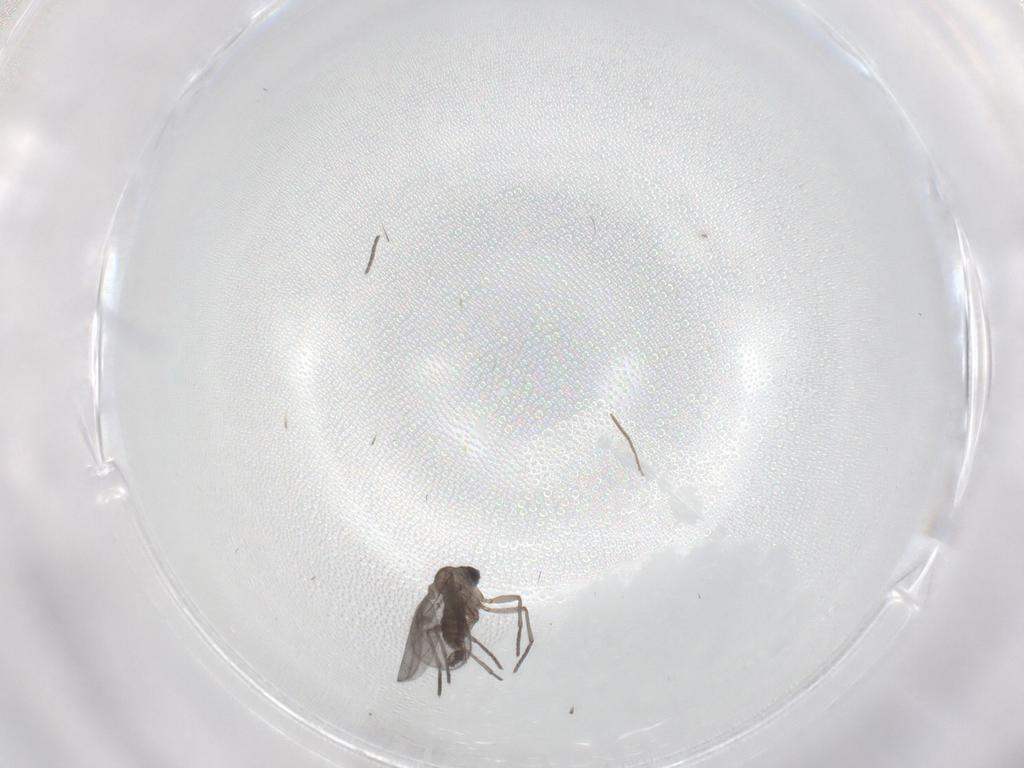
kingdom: Animalia
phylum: Arthropoda
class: Insecta
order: Diptera
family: Sciaridae
